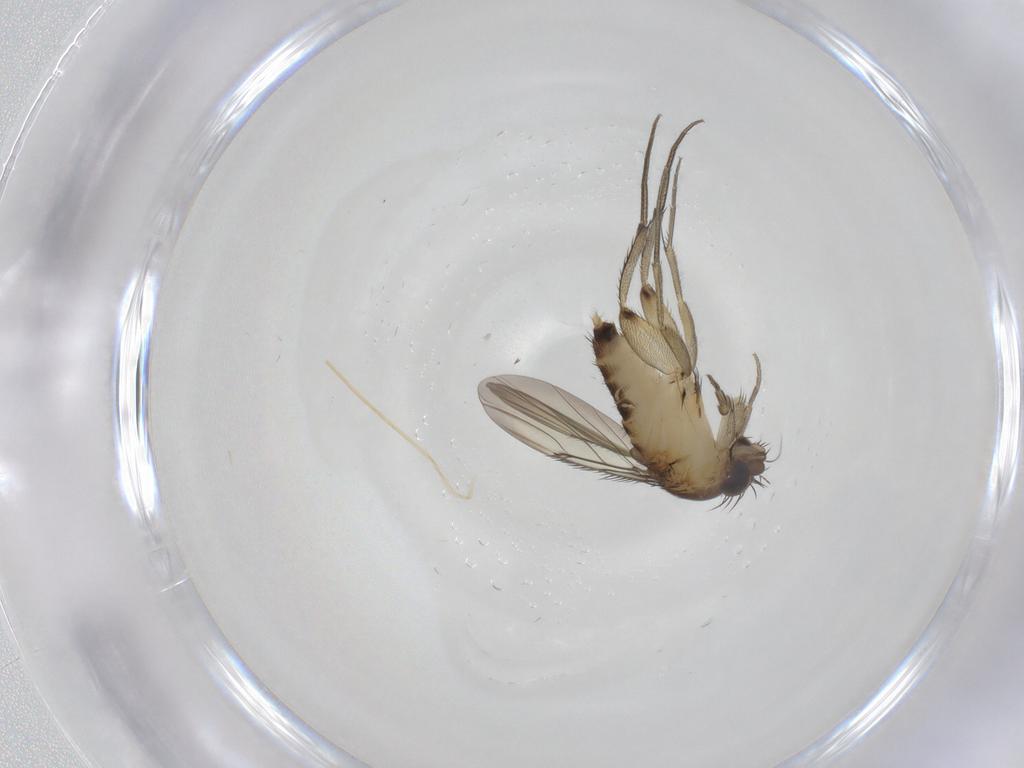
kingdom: Animalia
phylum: Arthropoda
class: Insecta
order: Diptera
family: Phoridae
